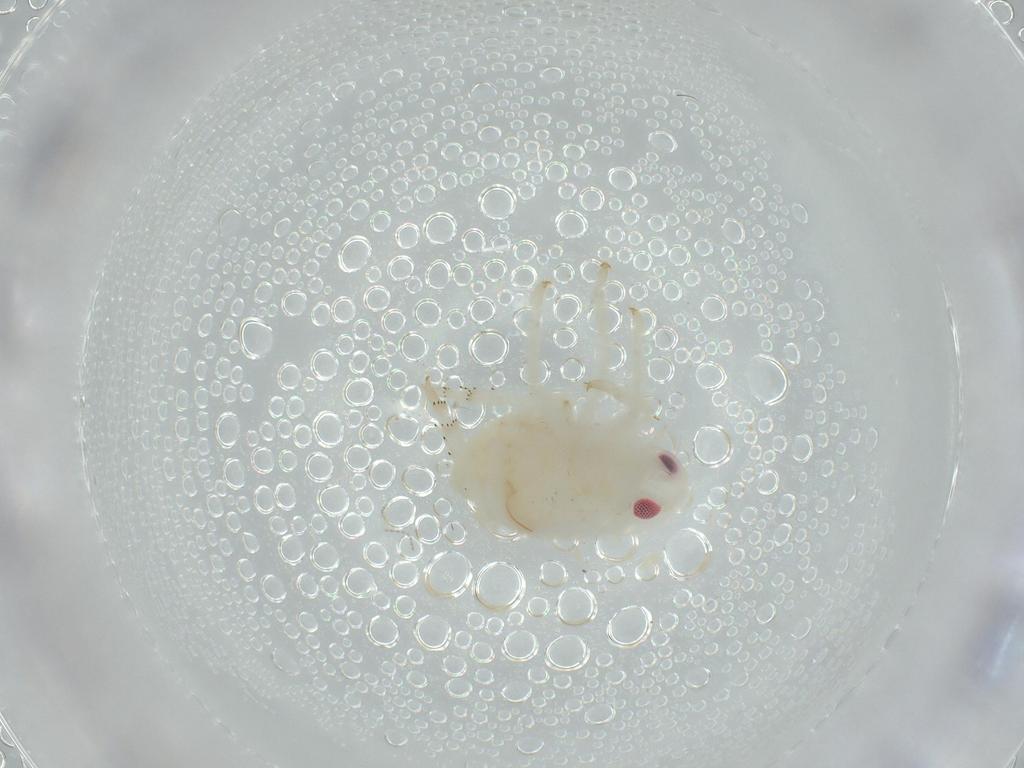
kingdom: Animalia
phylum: Arthropoda
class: Insecta
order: Hemiptera
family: Flatidae
